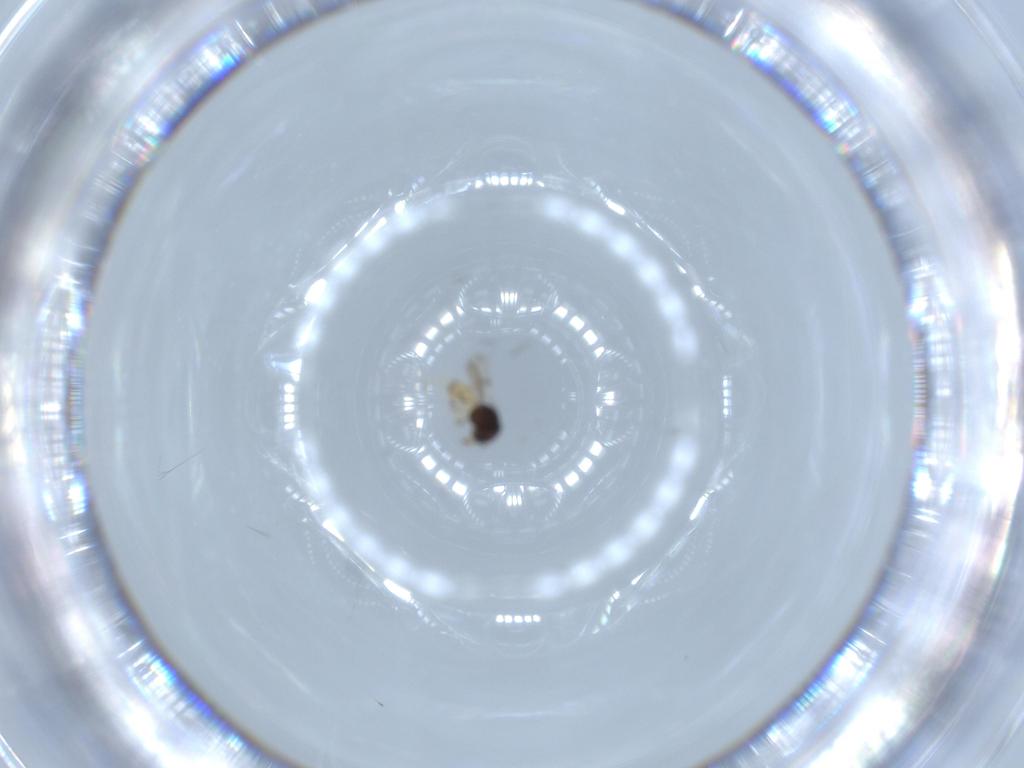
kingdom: Animalia
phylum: Arthropoda
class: Insecta
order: Hymenoptera
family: Scelionidae
